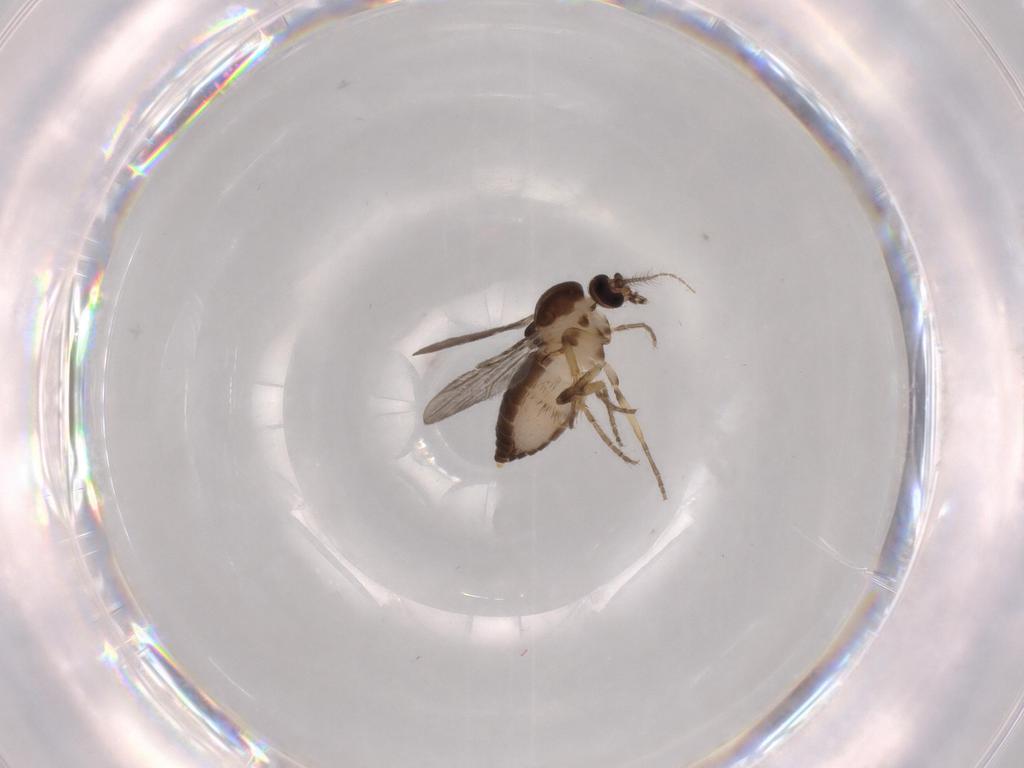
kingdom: Animalia
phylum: Arthropoda
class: Insecta
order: Diptera
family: Ceratopogonidae
